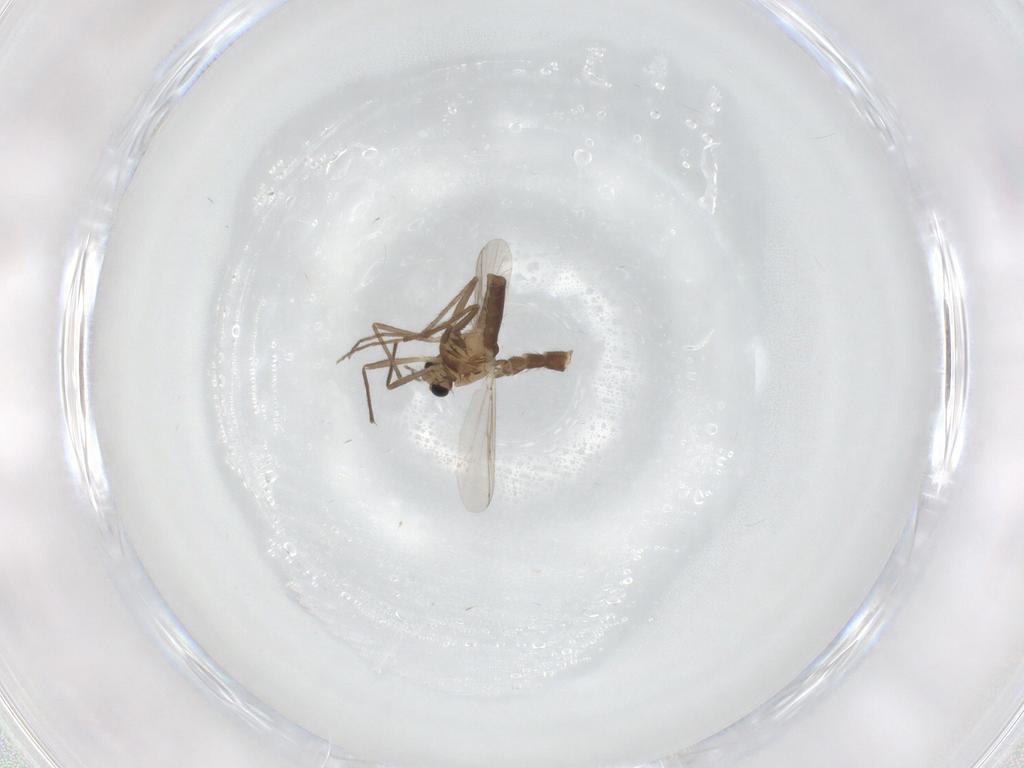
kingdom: Animalia
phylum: Arthropoda
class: Insecta
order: Diptera
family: Chironomidae
